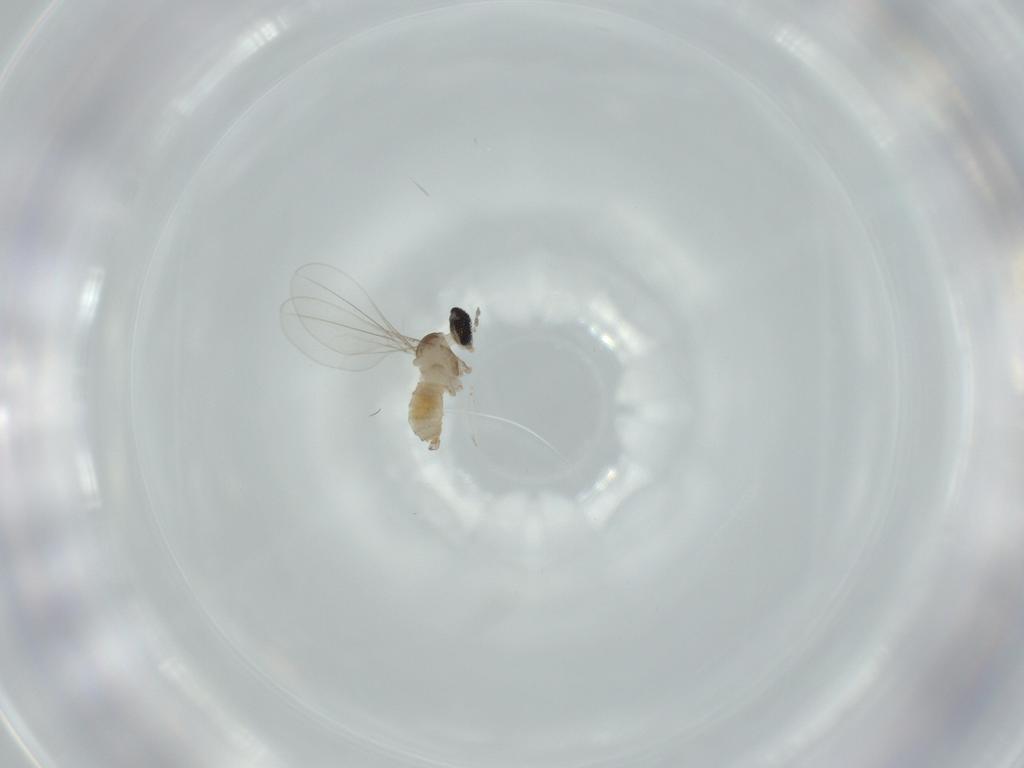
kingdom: Animalia
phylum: Arthropoda
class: Insecta
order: Diptera
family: Cecidomyiidae
